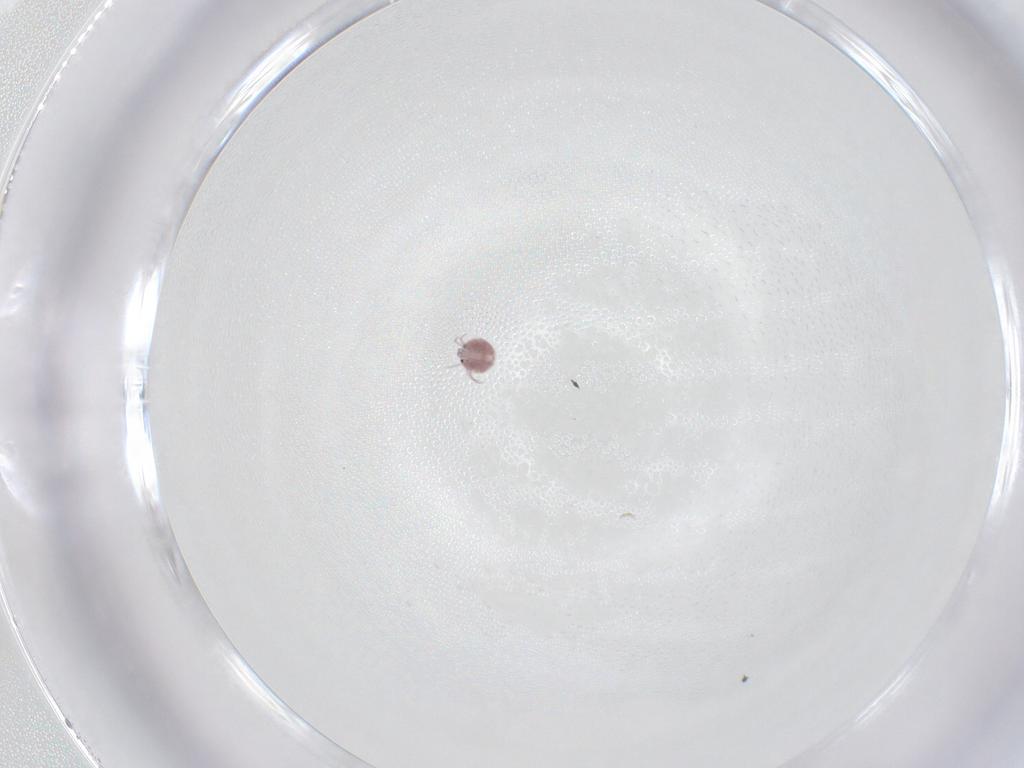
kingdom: Animalia
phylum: Arthropoda
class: Arachnida
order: Trombidiformes
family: Pionidae
